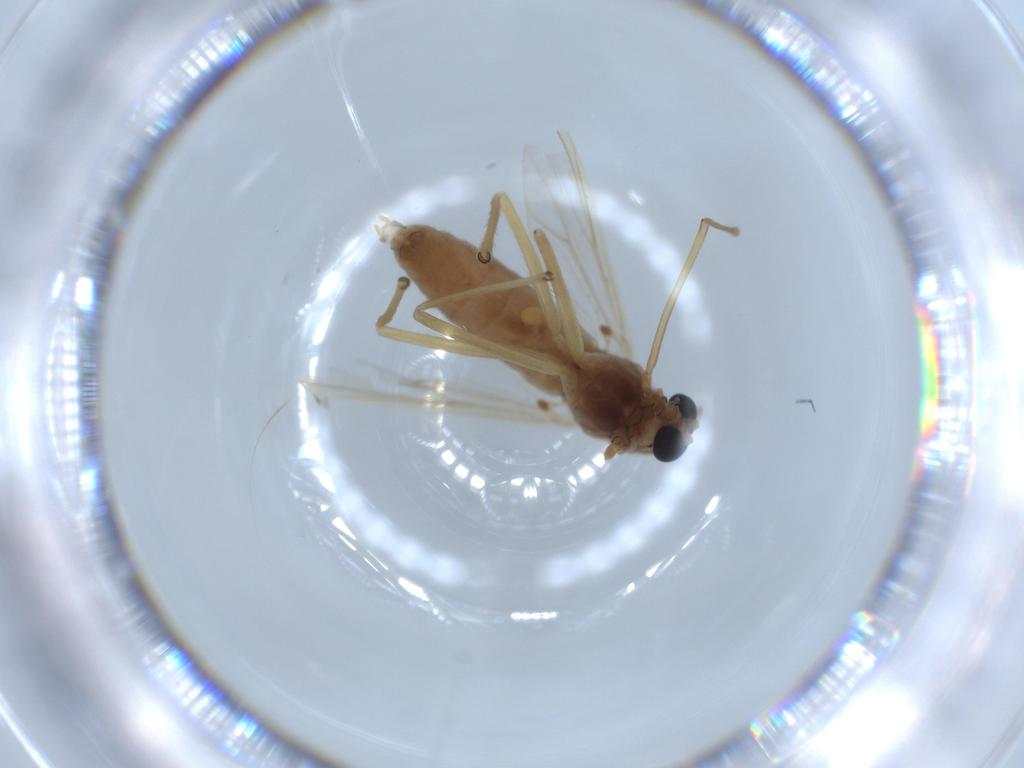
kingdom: Animalia
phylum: Arthropoda
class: Insecta
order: Diptera
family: Chironomidae
